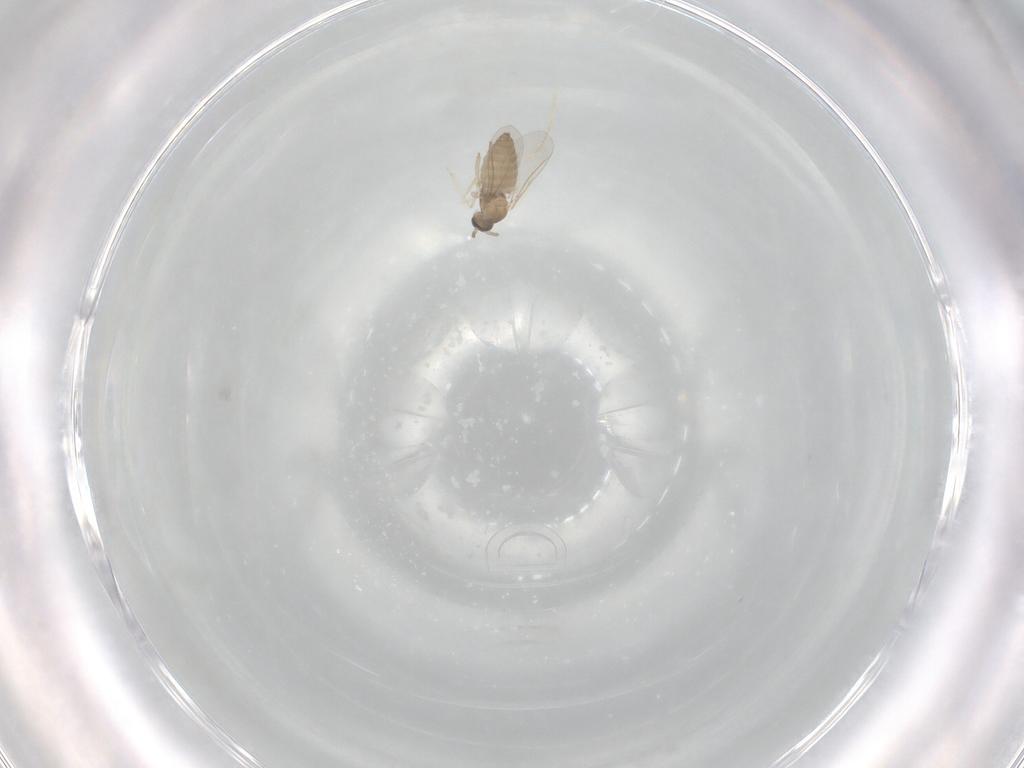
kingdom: Animalia
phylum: Arthropoda
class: Insecta
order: Diptera
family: Cecidomyiidae
